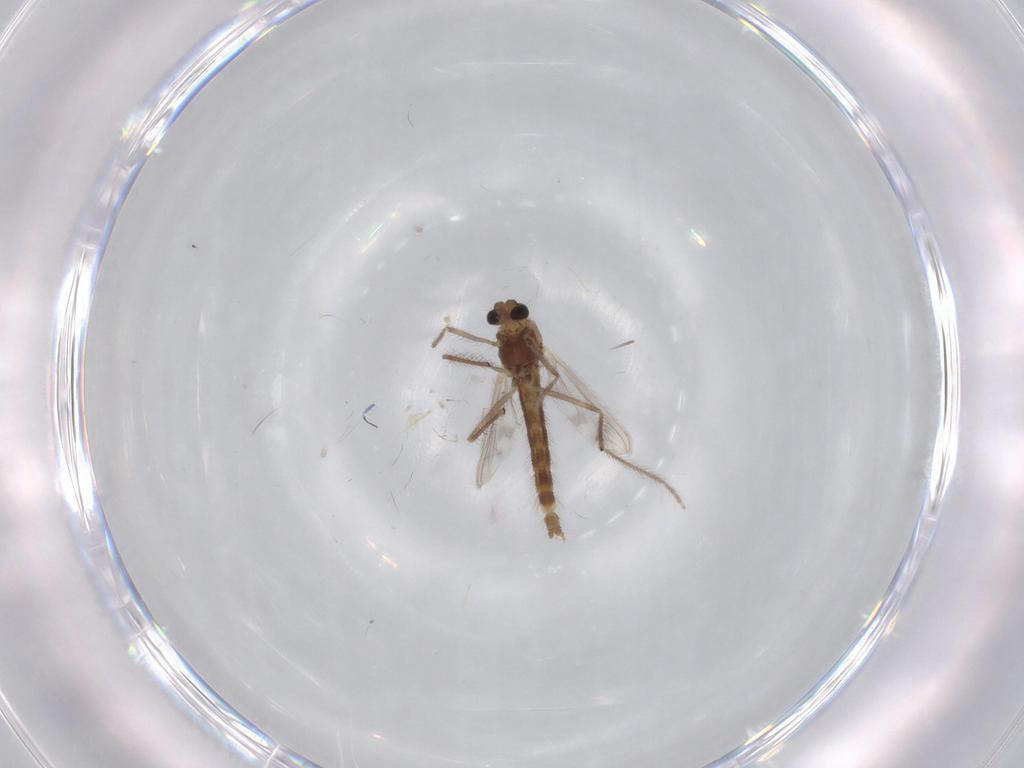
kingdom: Animalia
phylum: Arthropoda
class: Insecta
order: Diptera
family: Chironomidae
